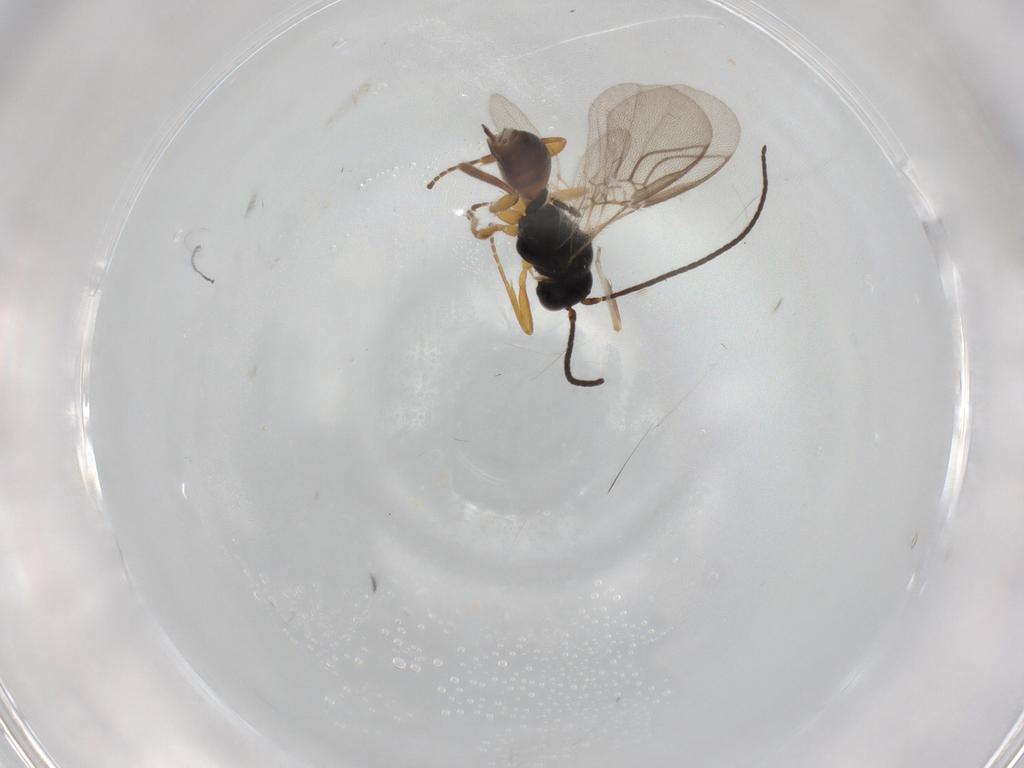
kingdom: Animalia
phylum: Arthropoda
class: Insecta
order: Hymenoptera
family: Braconidae
